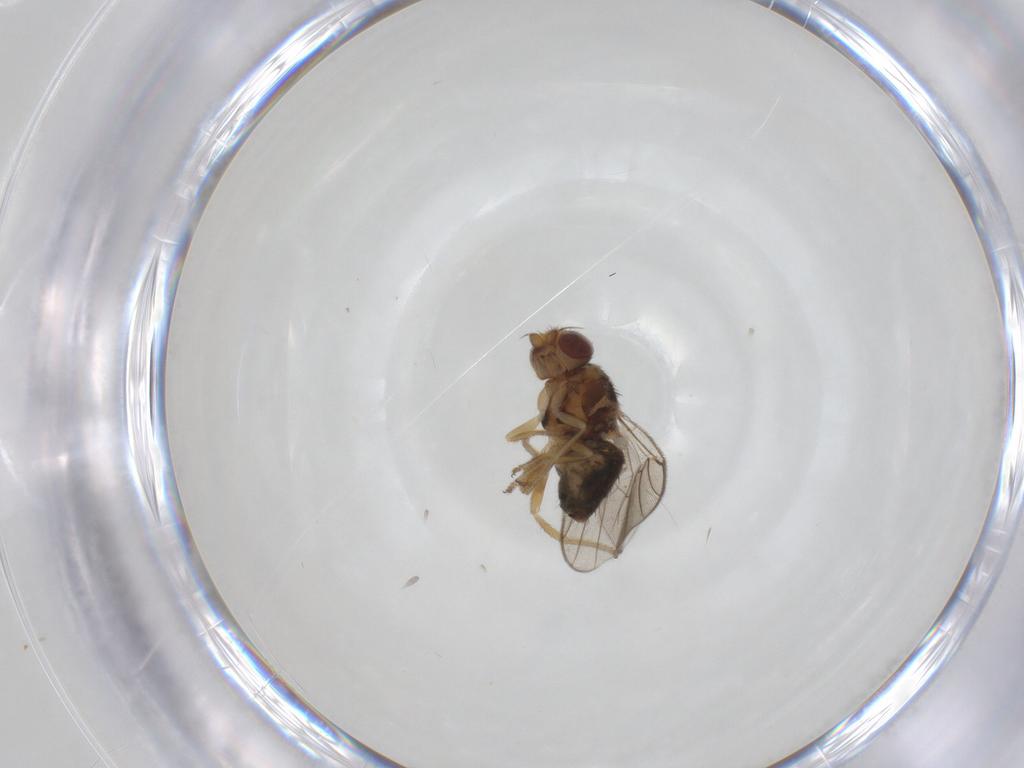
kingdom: Animalia
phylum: Arthropoda
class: Insecta
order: Diptera
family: Chloropidae
